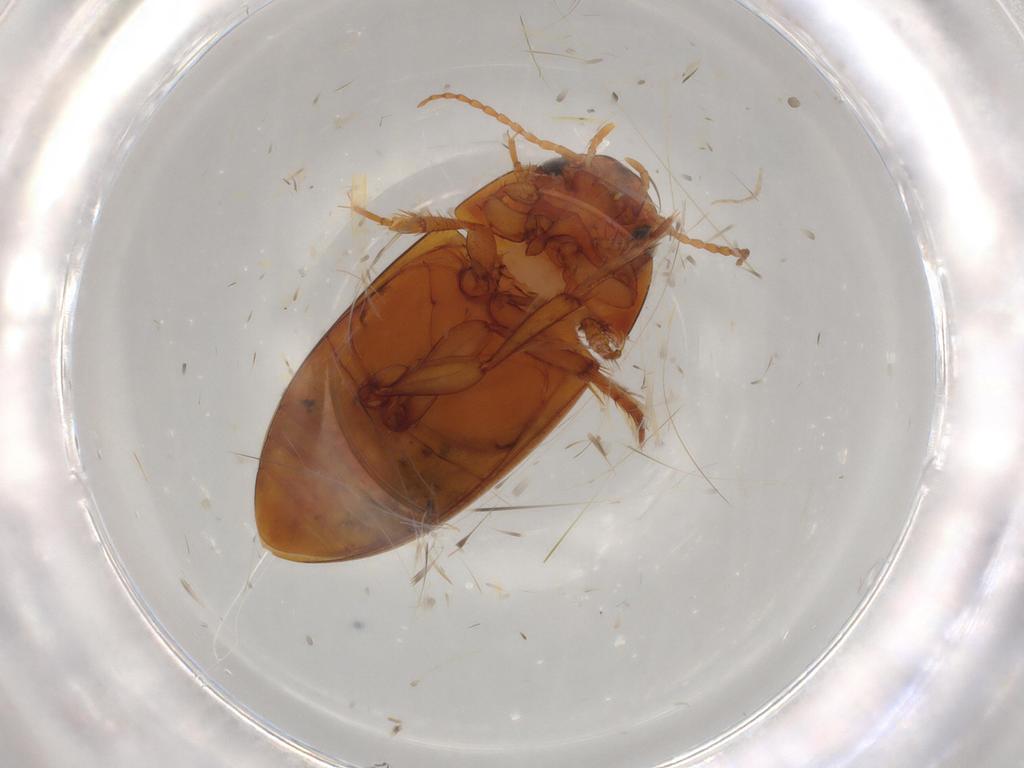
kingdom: Animalia
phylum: Arthropoda
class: Insecta
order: Coleoptera
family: Dytiscidae
